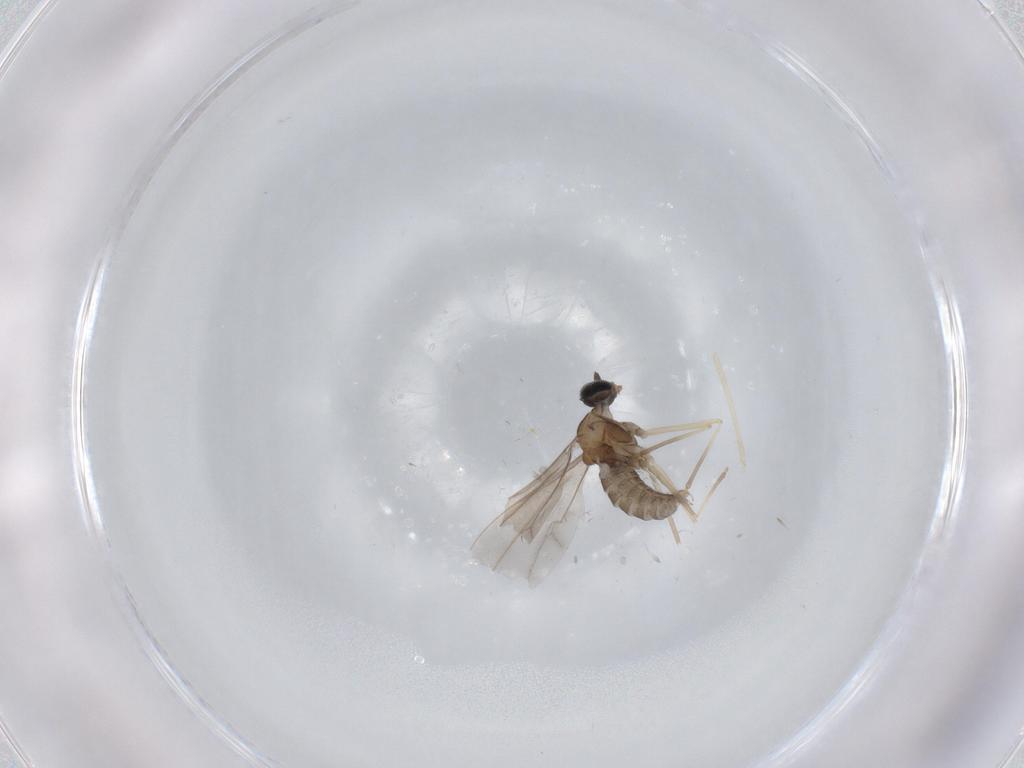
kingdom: Animalia
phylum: Arthropoda
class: Insecta
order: Diptera
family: Cecidomyiidae
